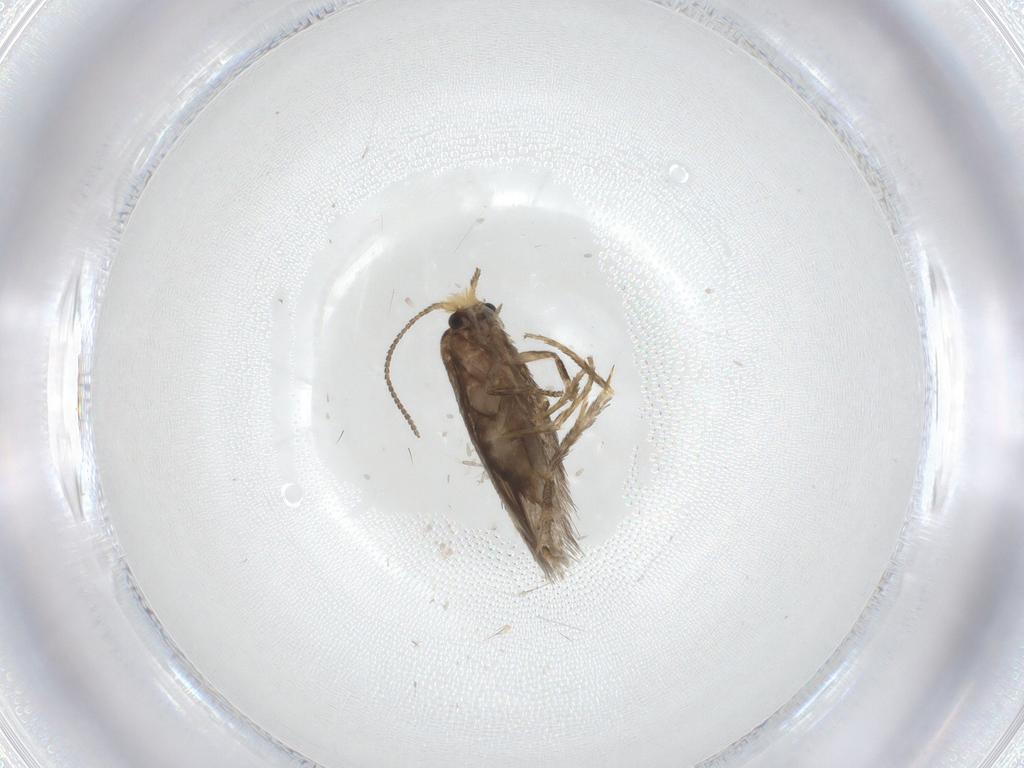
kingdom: Animalia
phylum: Arthropoda
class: Insecta
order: Lepidoptera
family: Nepticulidae
